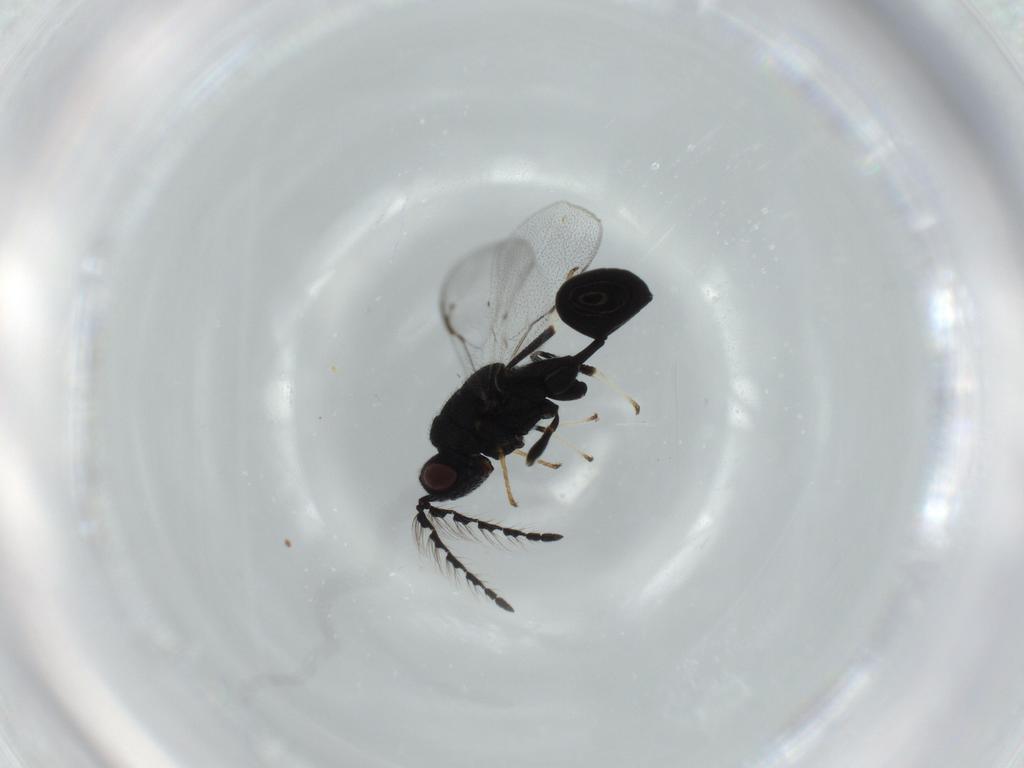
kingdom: Animalia
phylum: Arthropoda
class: Insecta
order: Hymenoptera
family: Eurytomidae
